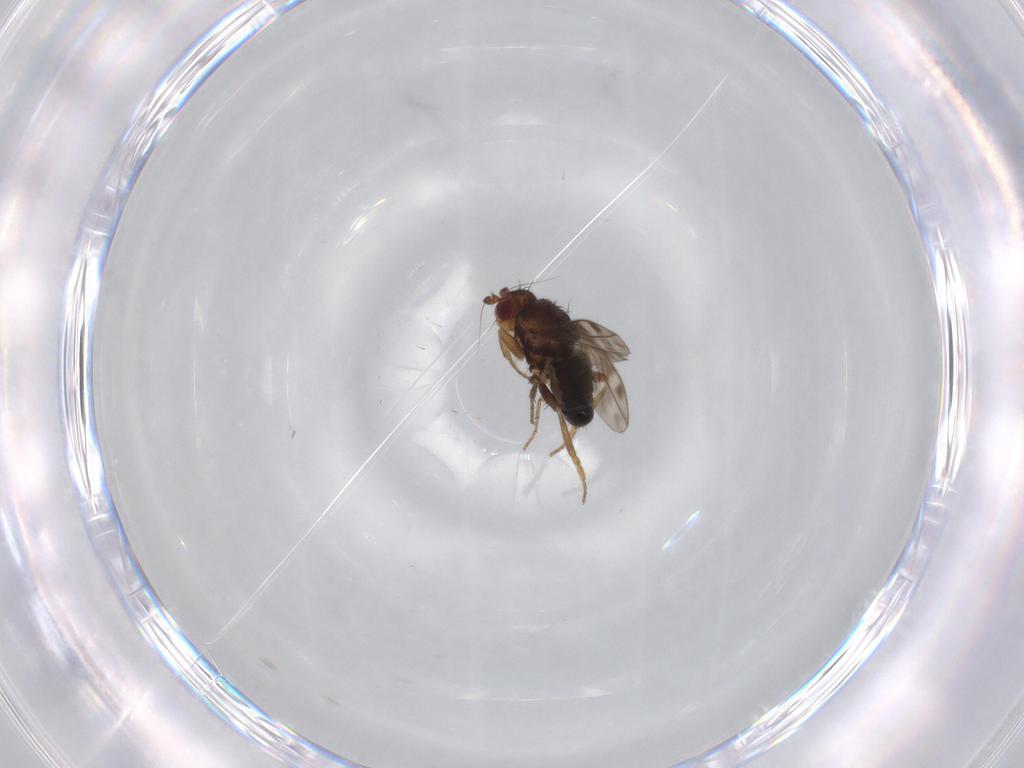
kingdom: Animalia
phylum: Arthropoda
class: Insecta
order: Diptera
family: Sphaeroceridae
